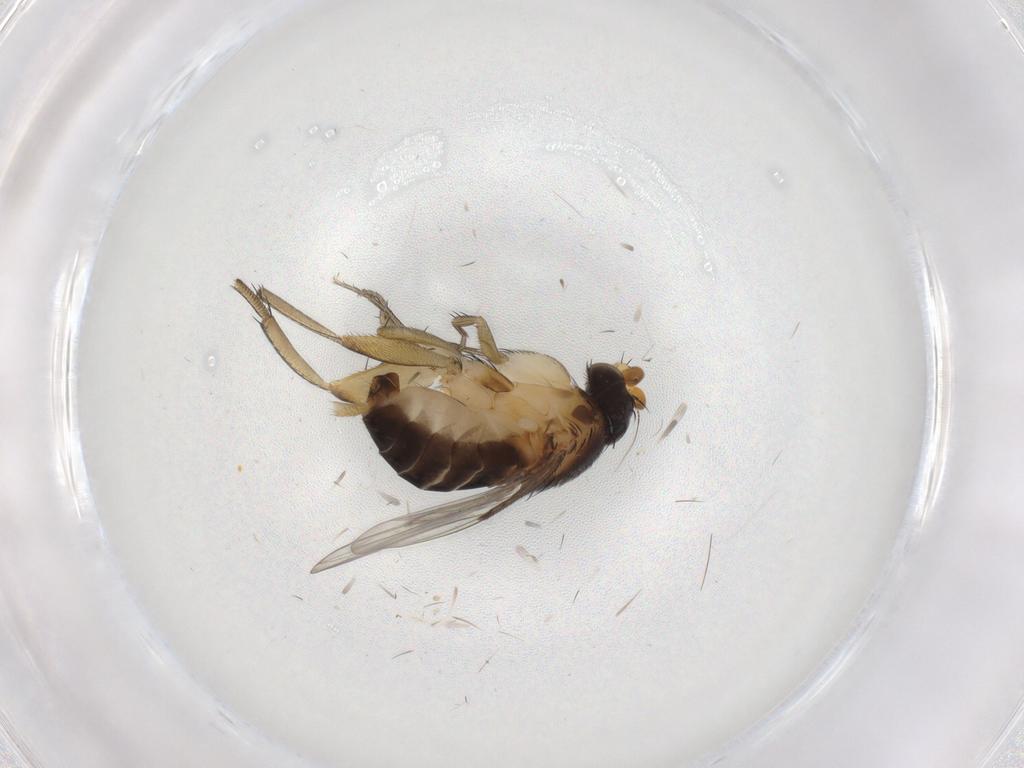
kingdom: Animalia
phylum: Arthropoda
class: Insecta
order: Diptera
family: Phoridae
